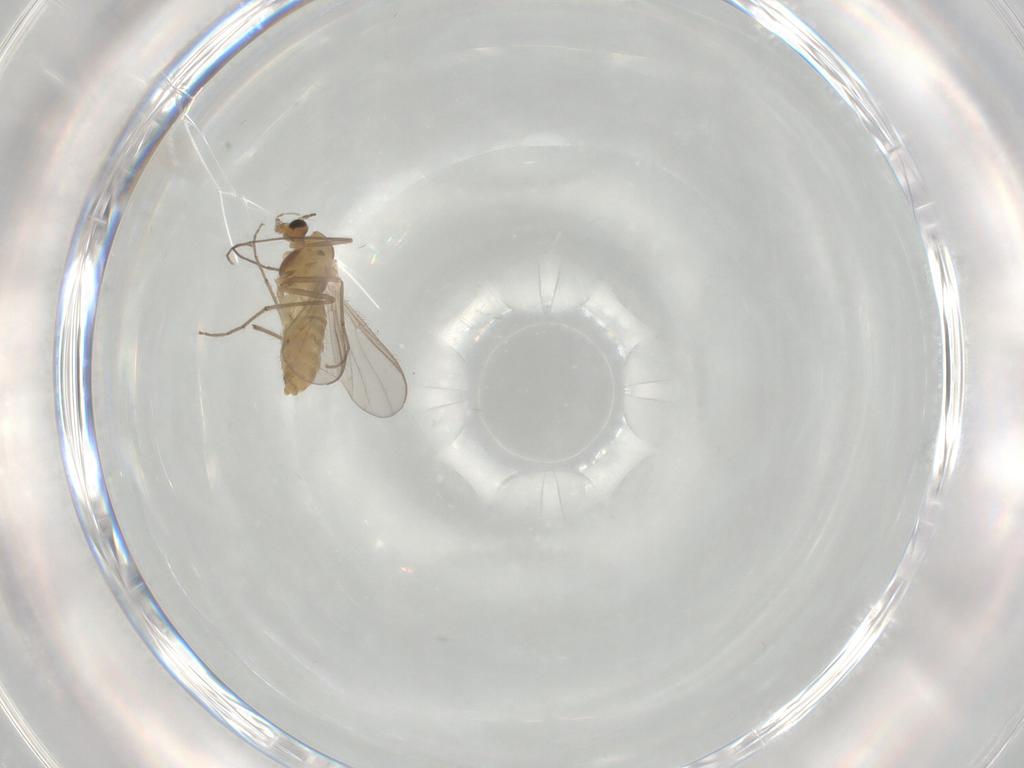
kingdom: Animalia
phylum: Arthropoda
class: Insecta
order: Diptera
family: Chironomidae
